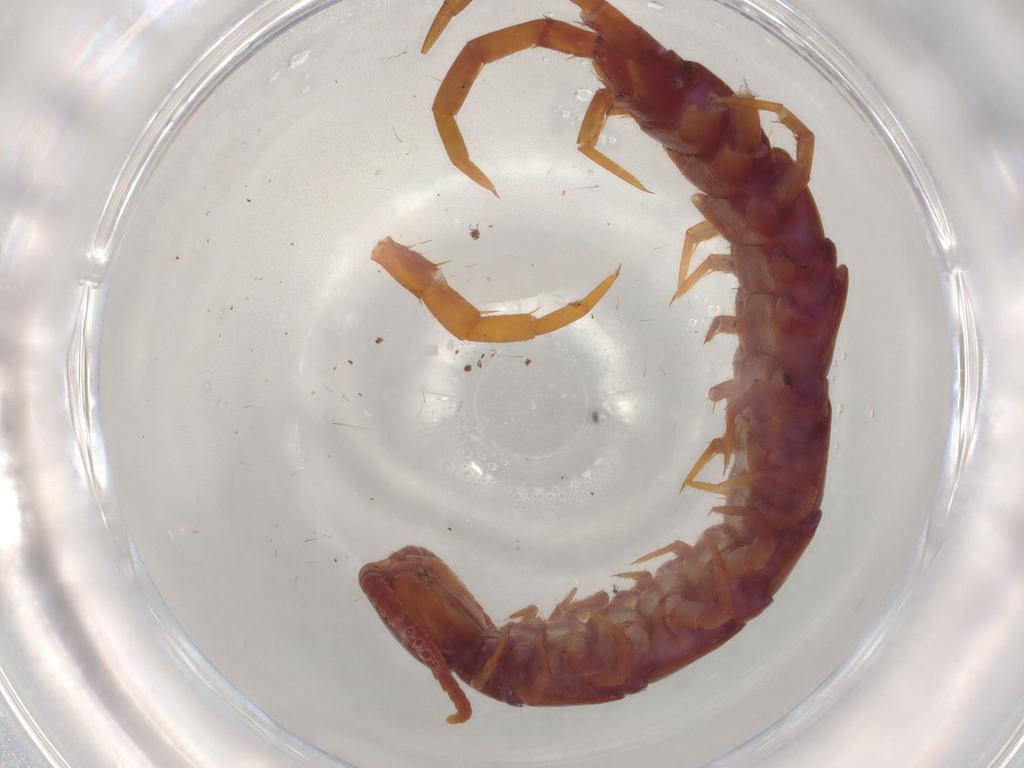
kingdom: Animalia
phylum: Arthropoda
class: Chilopoda
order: Lithobiomorpha
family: Lithobiidae
